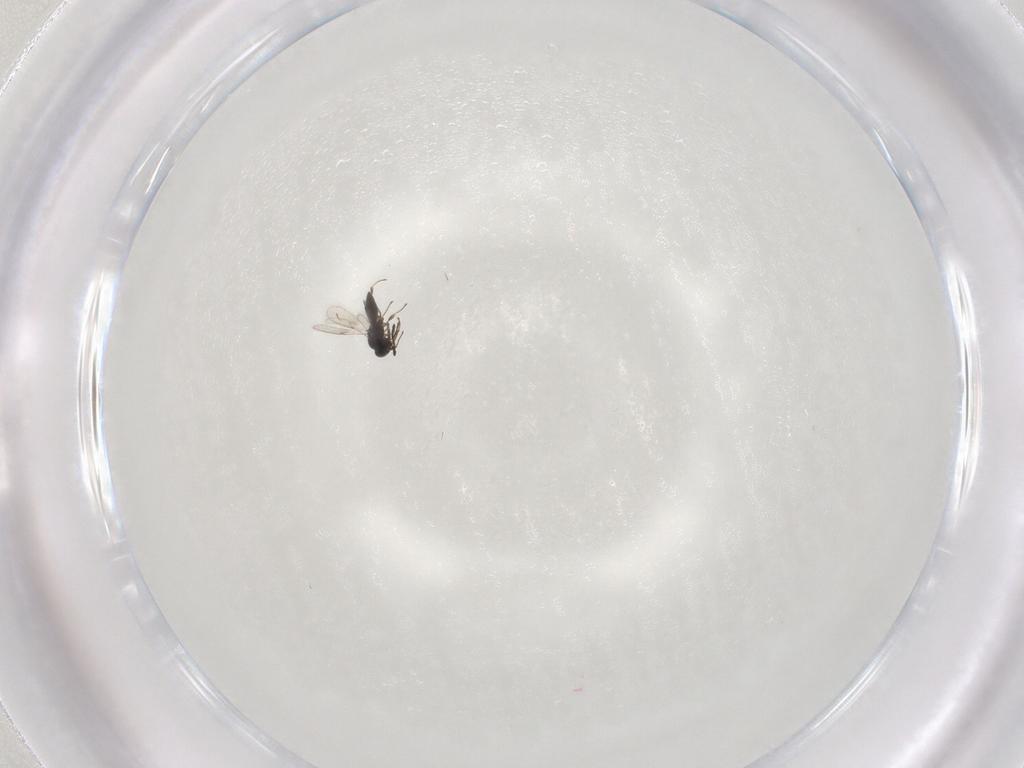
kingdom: Animalia
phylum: Arthropoda
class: Insecta
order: Hymenoptera
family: Scelionidae
